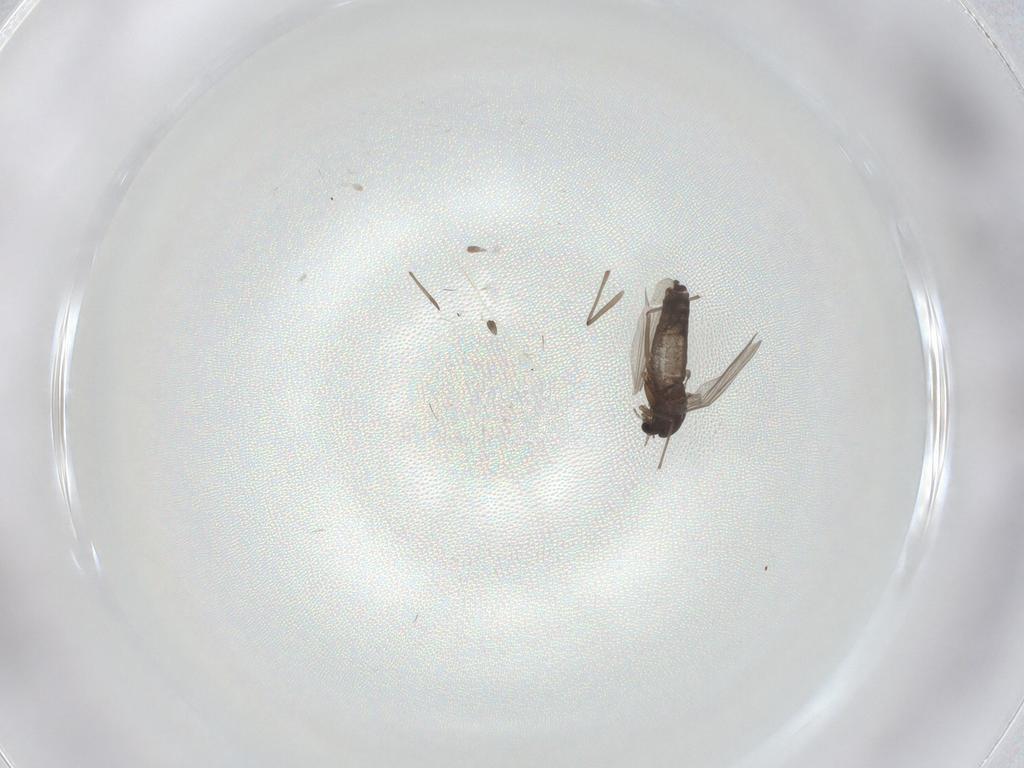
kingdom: Animalia
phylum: Arthropoda
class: Insecta
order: Diptera
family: Chironomidae
